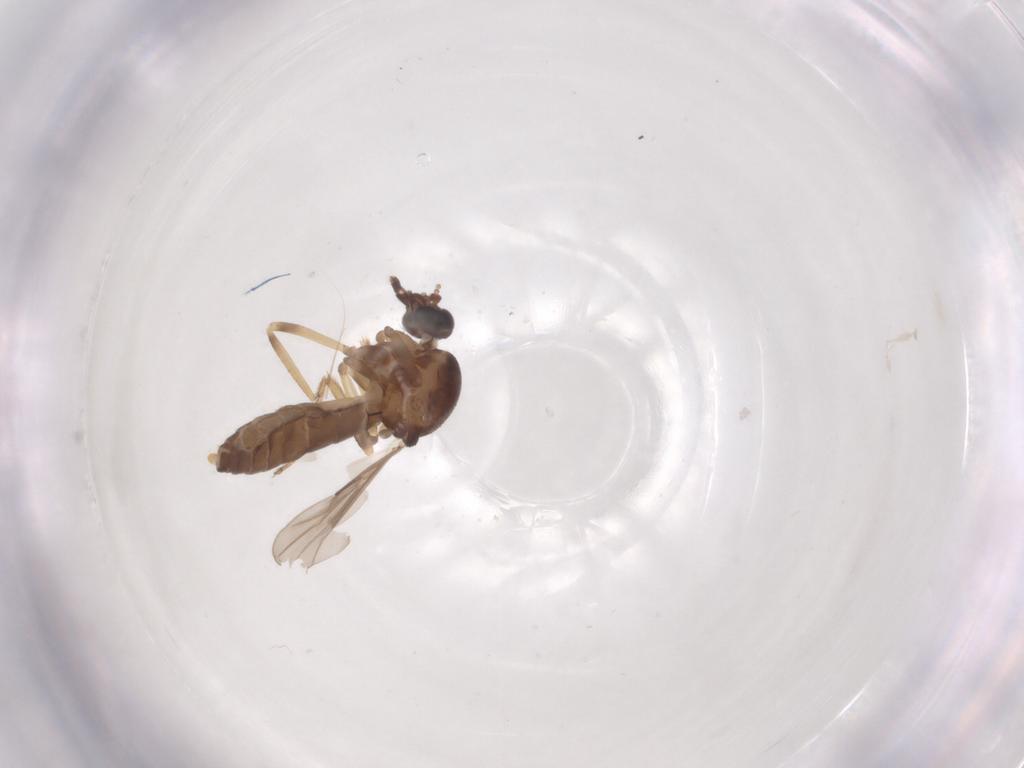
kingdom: Animalia
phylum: Arthropoda
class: Insecta
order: Diptera
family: Ceratopogonidae
